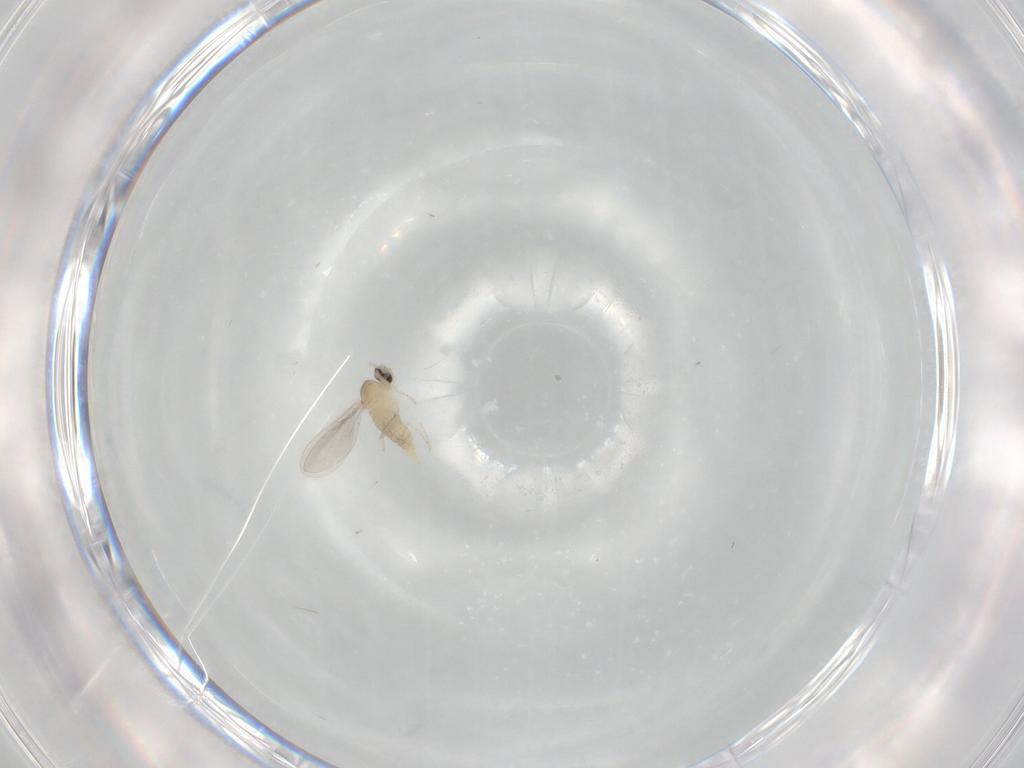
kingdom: Animalia
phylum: Arthropoda
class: Insecta
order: Diptera
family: Cecidomyiidae
